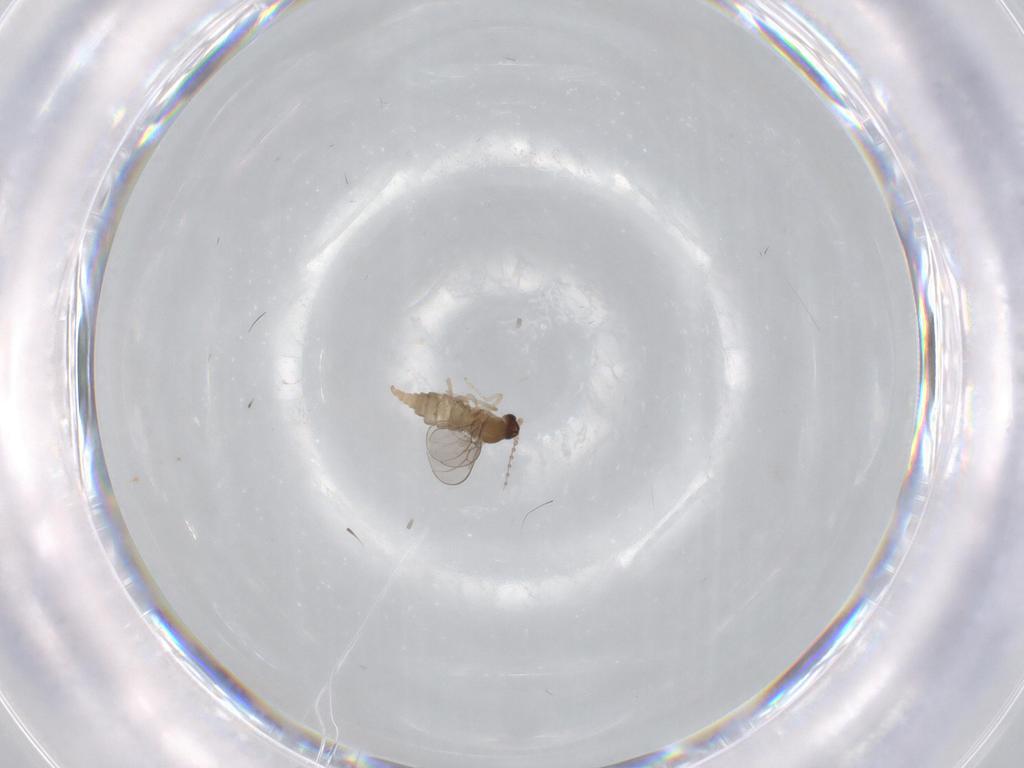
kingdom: Animalia
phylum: Arthropoda
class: Insecta
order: Diptera
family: Cecidomyiidae
